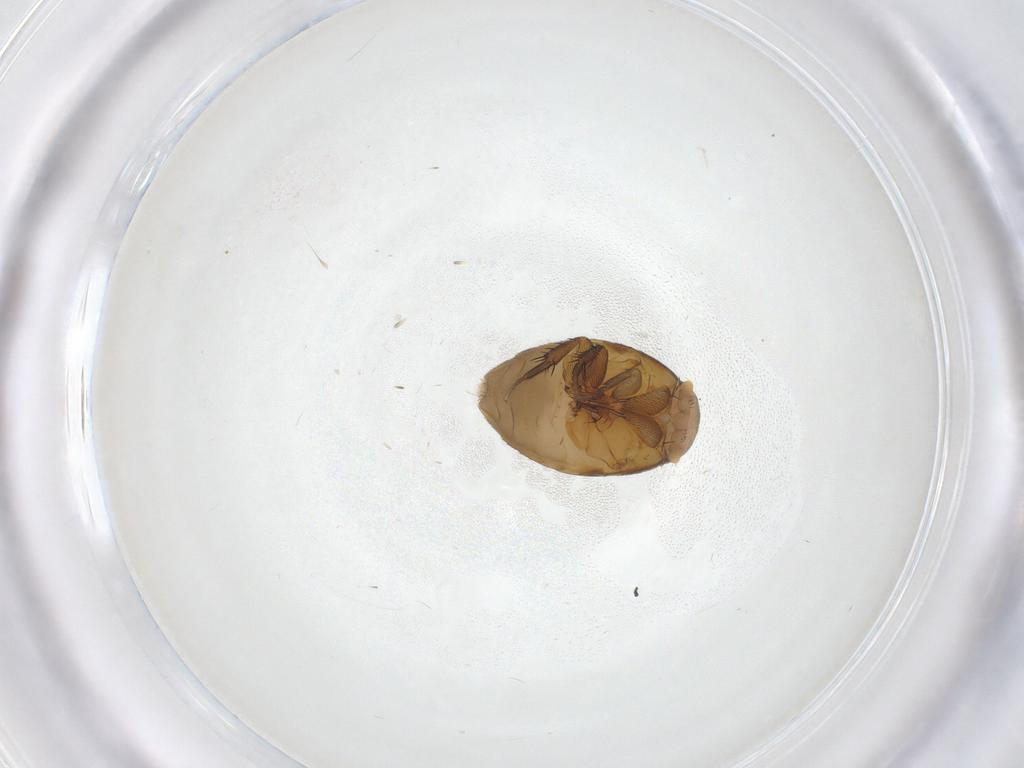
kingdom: Animalia
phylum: Arthropoda
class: Insecta
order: Diptera
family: Phoridae
